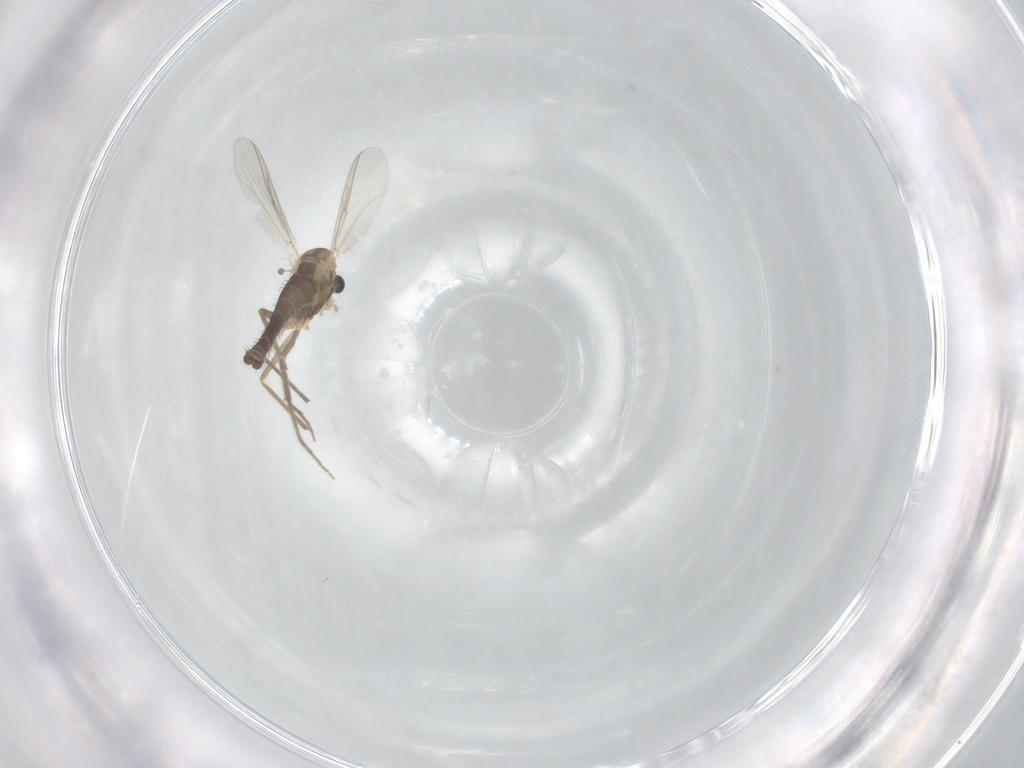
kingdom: Animalia
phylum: Arthropoda
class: Insecta
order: Diptera
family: Chironomidae
